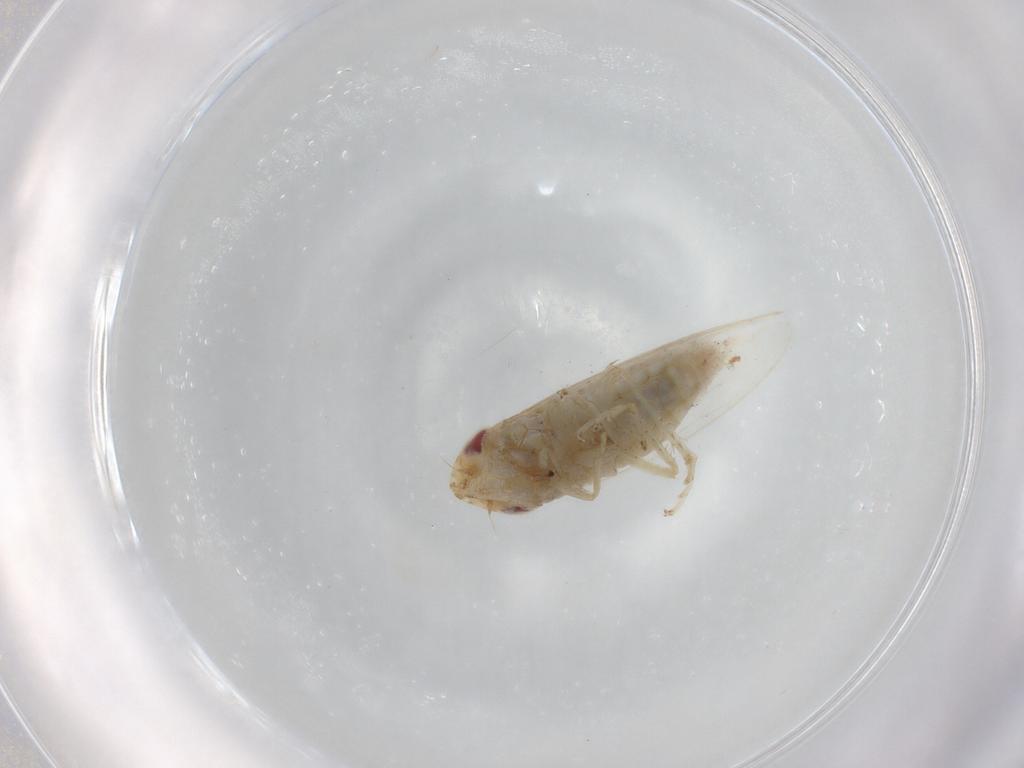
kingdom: Animalia
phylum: Arthropoda
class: Insecta
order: Hemiptera
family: Cicadellidae
